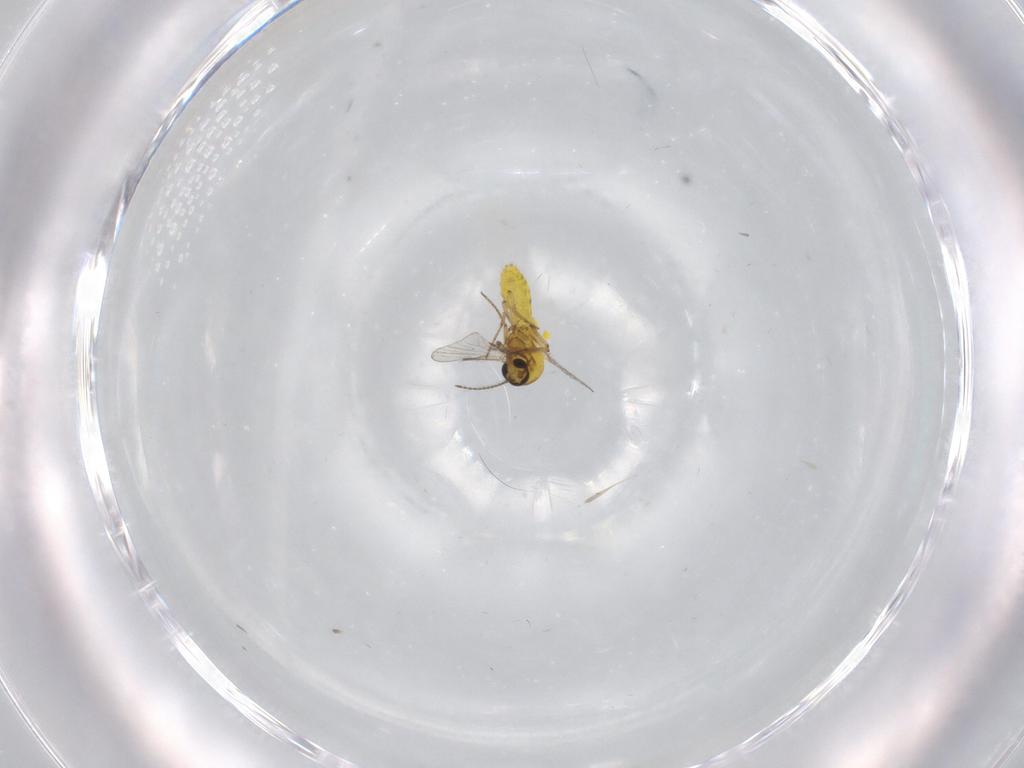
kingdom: Animalia
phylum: Arthropoda
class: Insecta
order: Diptera
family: Ceratopogonidae
